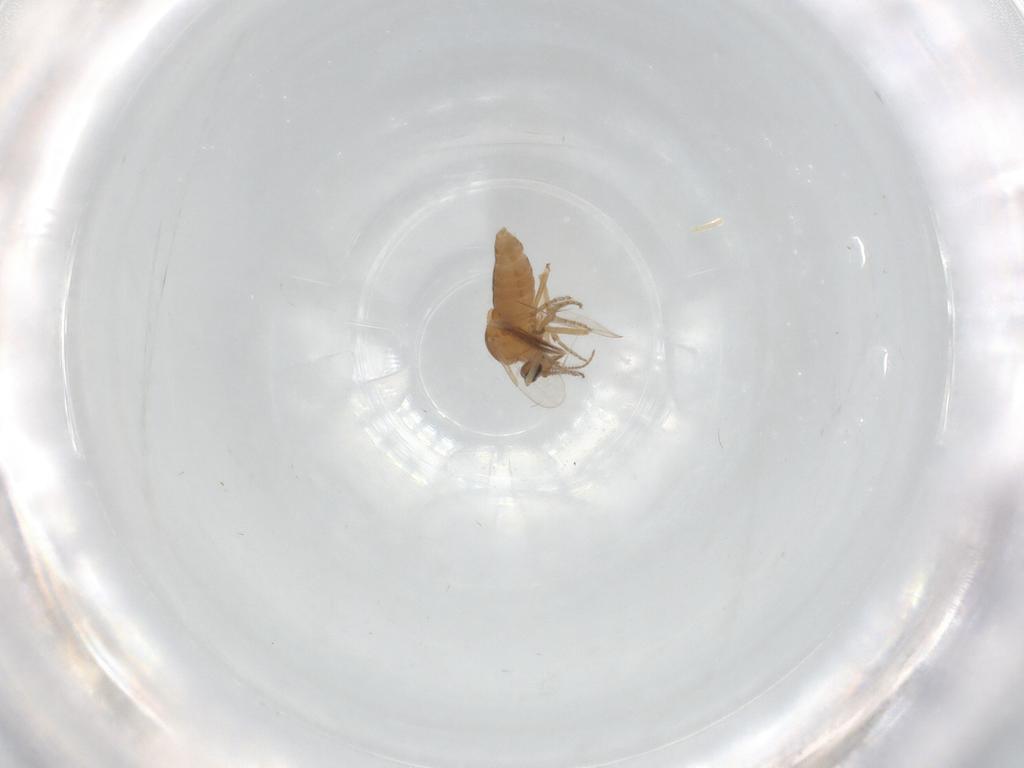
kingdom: Animalia
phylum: Arthropoda
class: Insecta
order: Diptera
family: Ceratopogonidae
